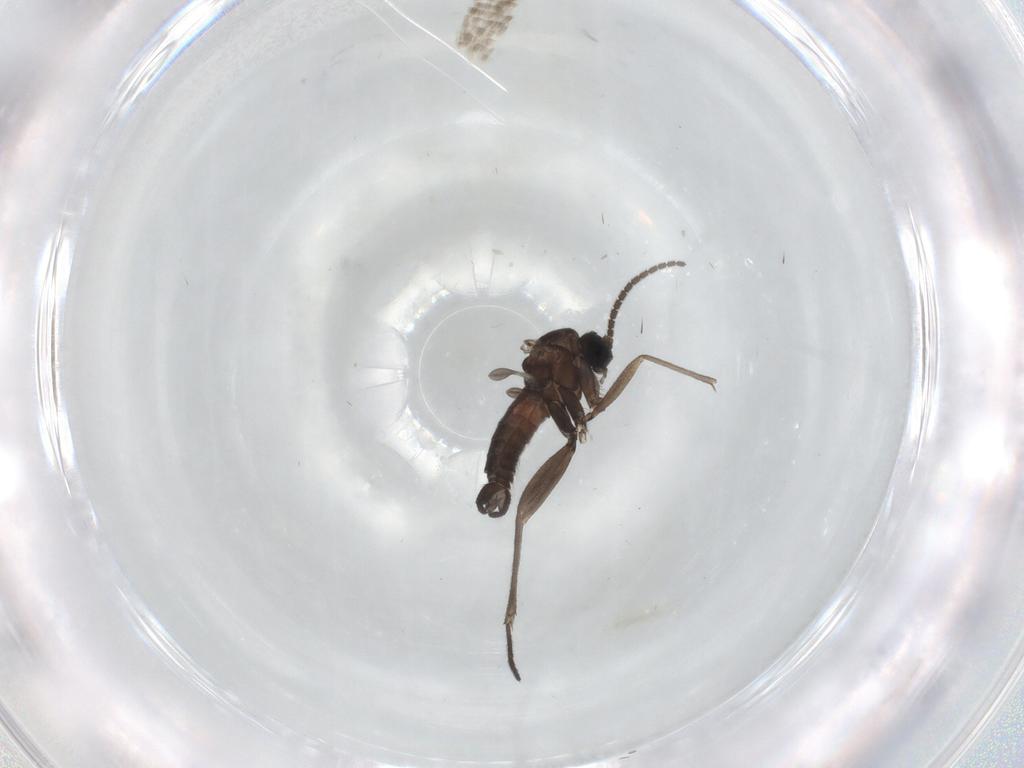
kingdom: Animalia
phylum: Arthropoda
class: Insecta
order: Diptera
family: Sciaridae
